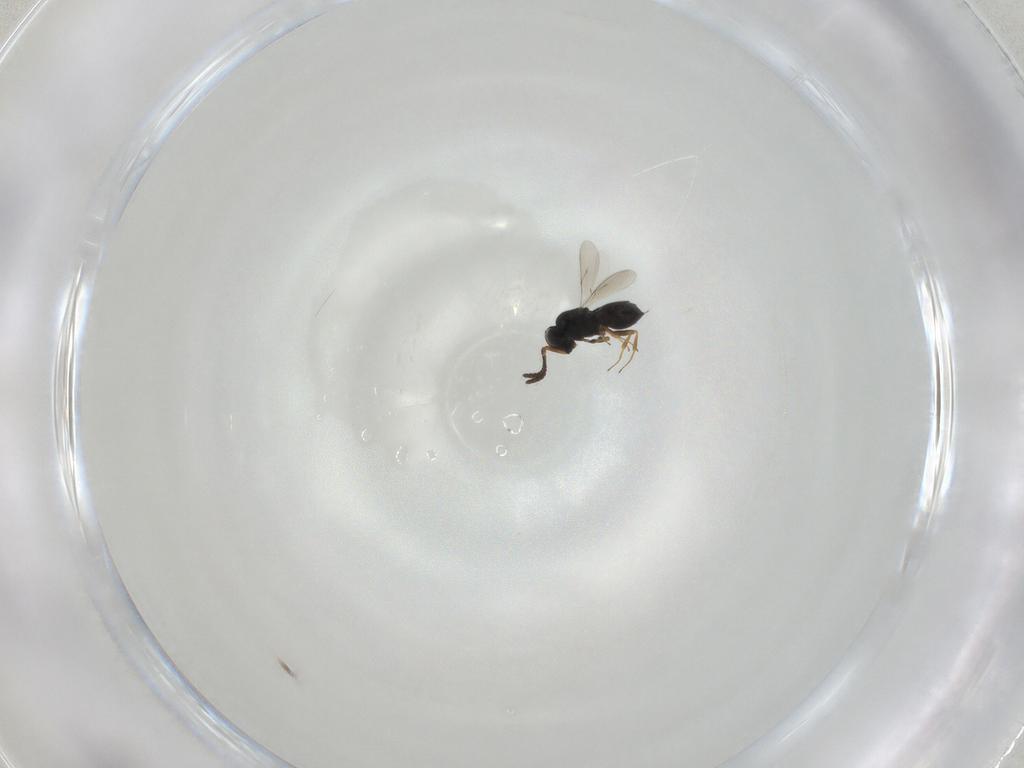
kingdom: Animalia
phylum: Arthropoda
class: Insecta
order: Hymenoptera
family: Scelionidae
